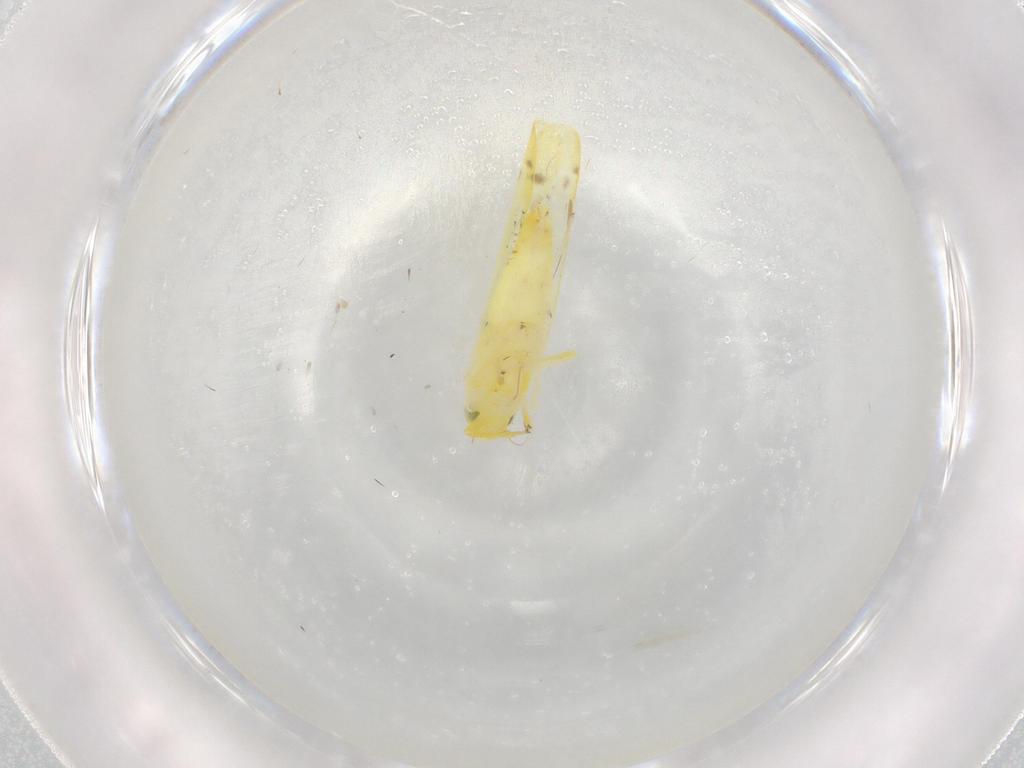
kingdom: Animalia
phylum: Arthropoda
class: Insecta
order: Hemiptera
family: Cicadellidae
